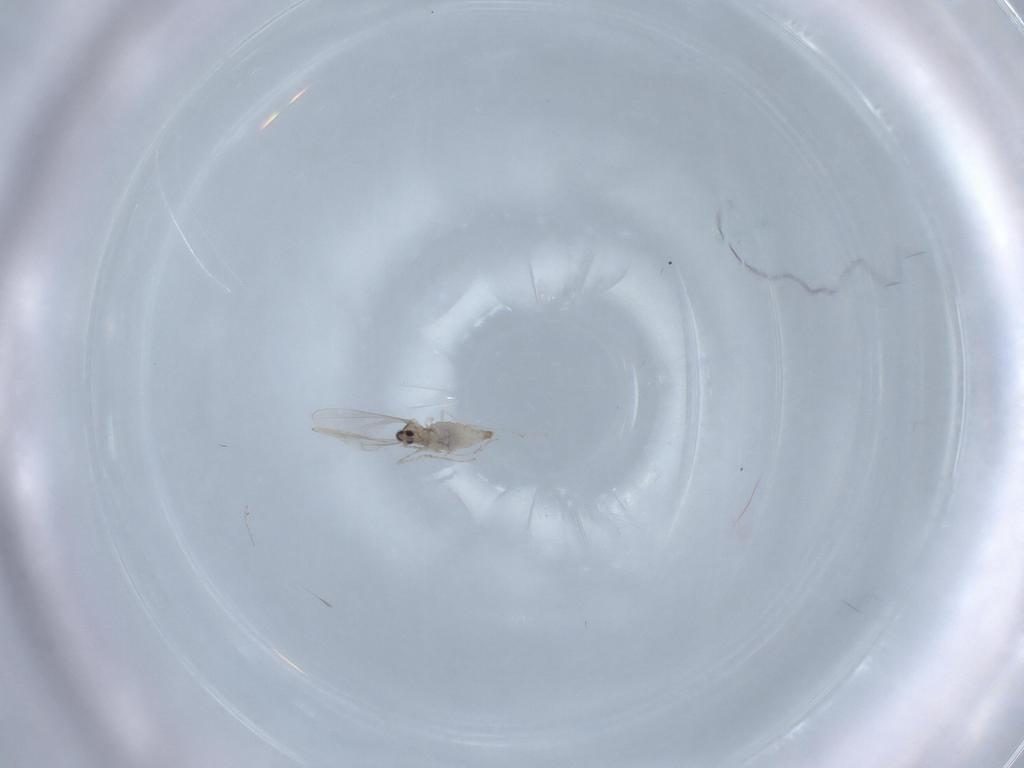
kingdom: Animalia
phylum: Arthropoda
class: Insecta
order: Diptera
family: Cecidomyiidae
